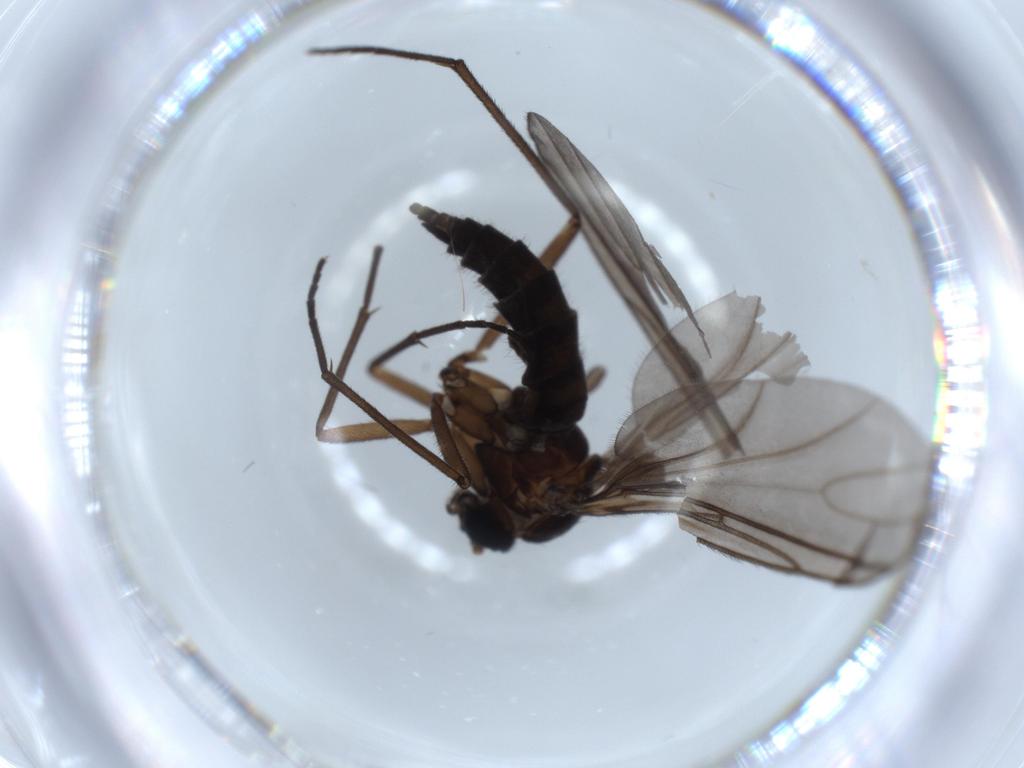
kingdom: Animalia
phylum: Arthropoda
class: Insecta
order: Diptera
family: Sciaridae
